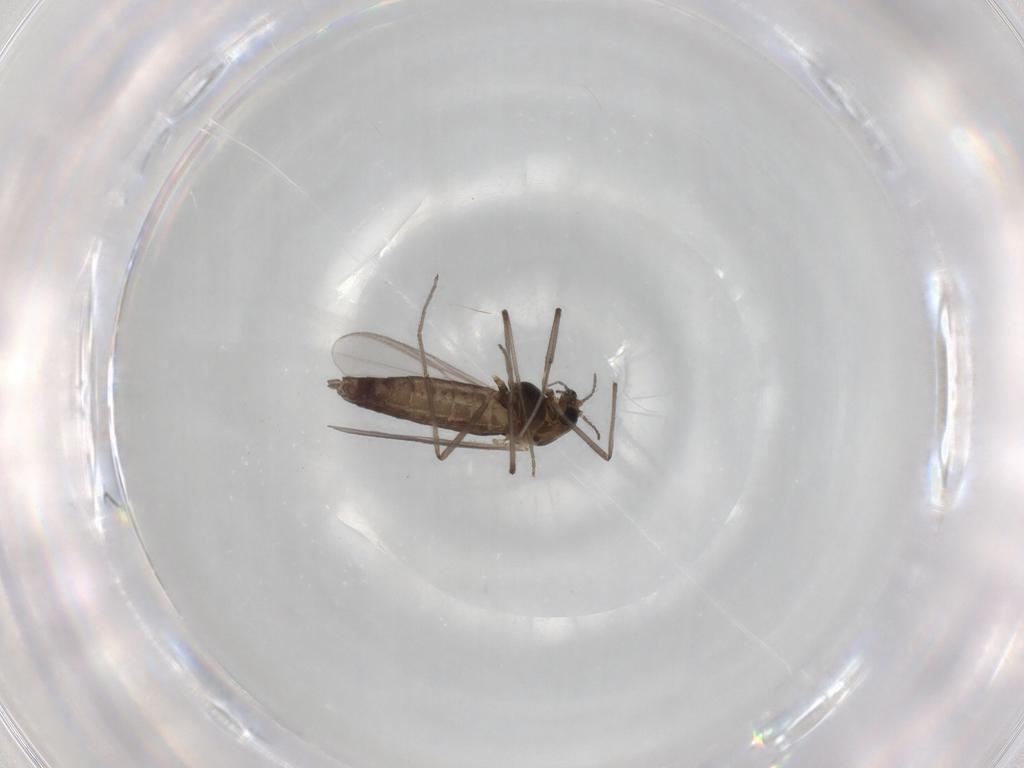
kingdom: Animalia
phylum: Arthropoda
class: Insecta
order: Diptera
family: Chironomidae
